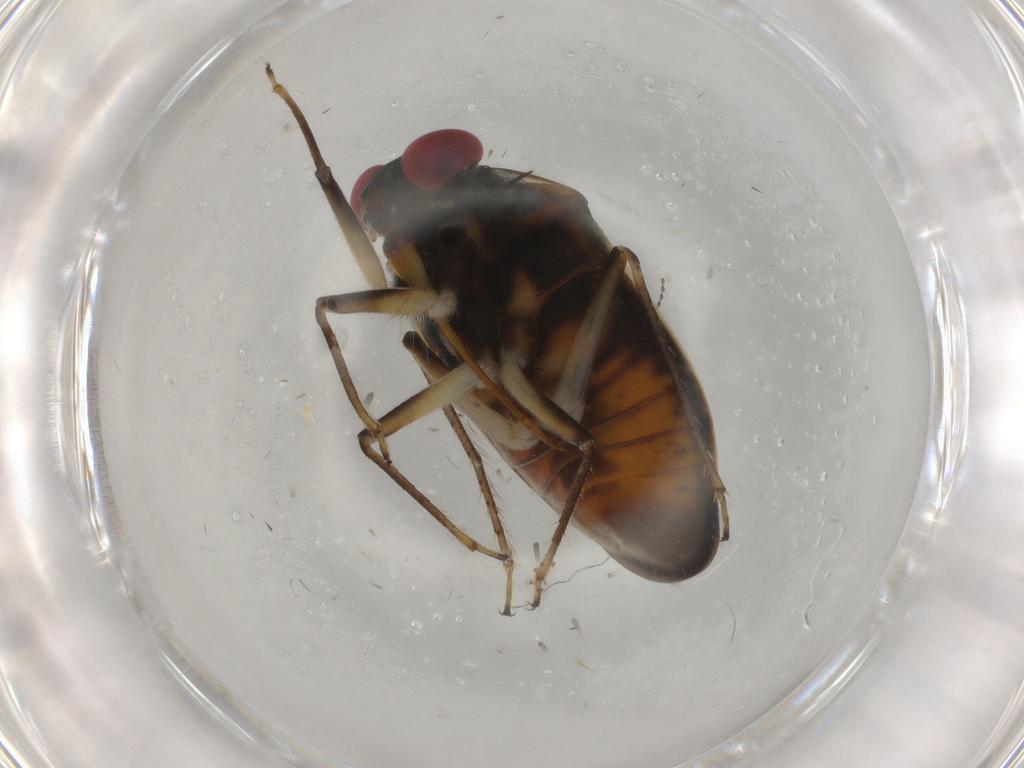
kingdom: Animalia
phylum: Arthropoda
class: Insecta
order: Hemiptera
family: Ochteridae
